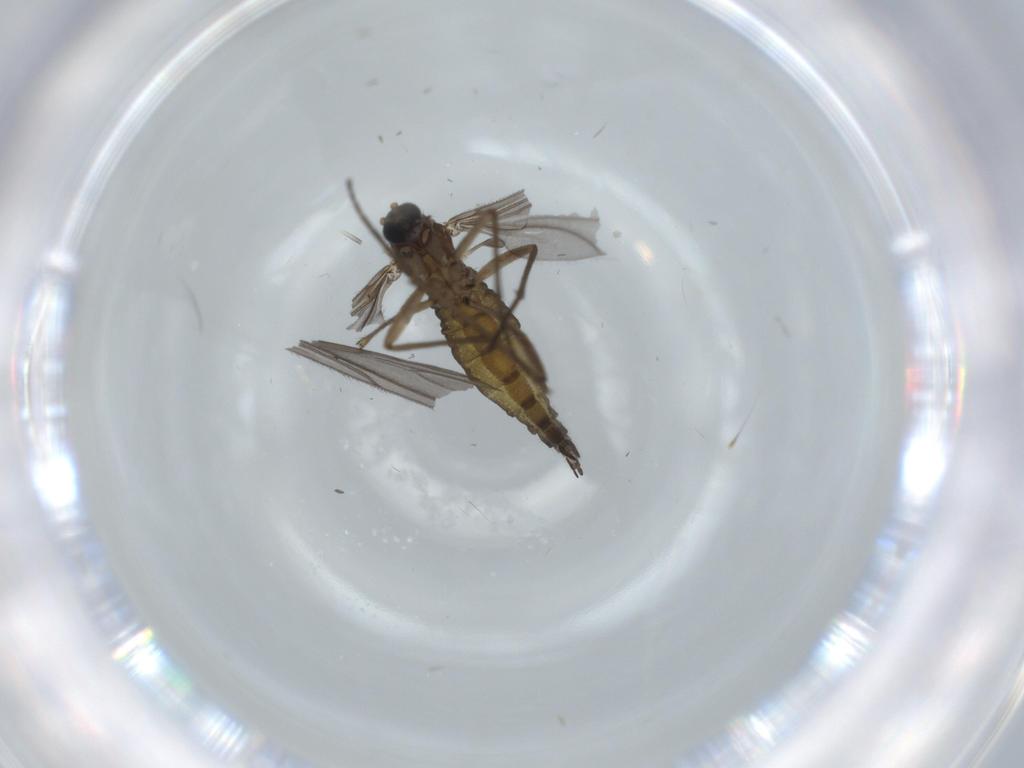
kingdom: Animalia
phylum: Arthropoda
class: Insecta
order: Diptera
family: Sciaridae
